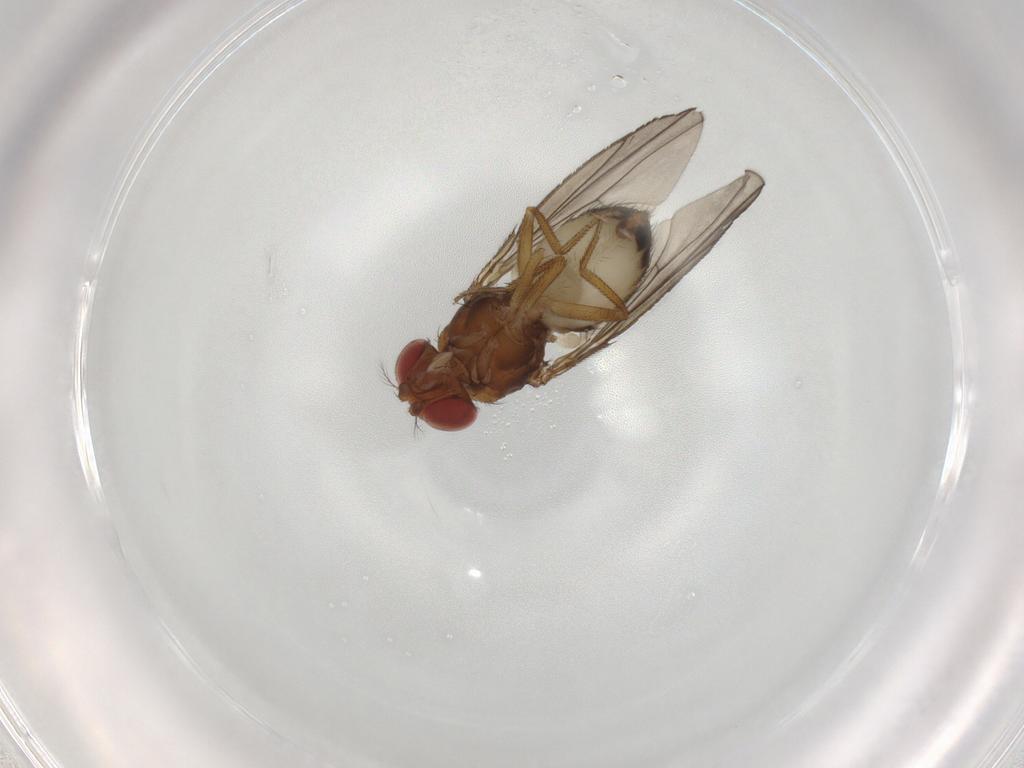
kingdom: Animalia
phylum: Arthropoda
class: Insecta
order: Diptera
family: Drosophilidae
